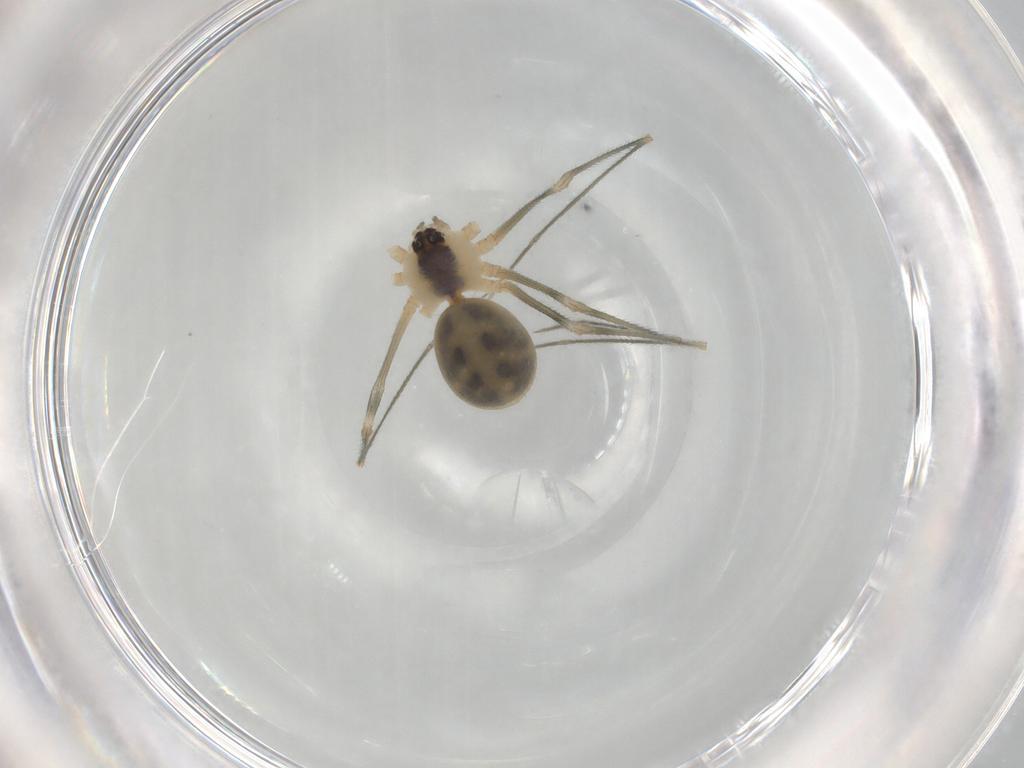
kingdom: Animalia
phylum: Arthropoda
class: Arachnida
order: Araneae
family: Pholcidae
